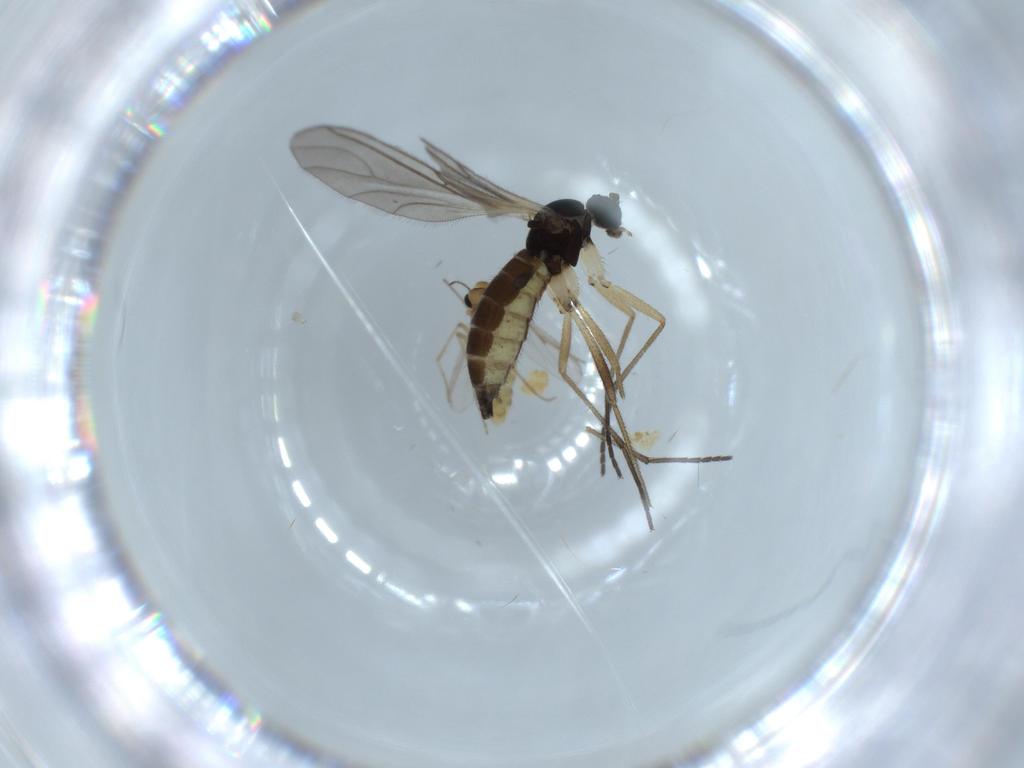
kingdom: Animalia
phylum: Arthropoda
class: Insecta
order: Diptera
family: Sciaridae
